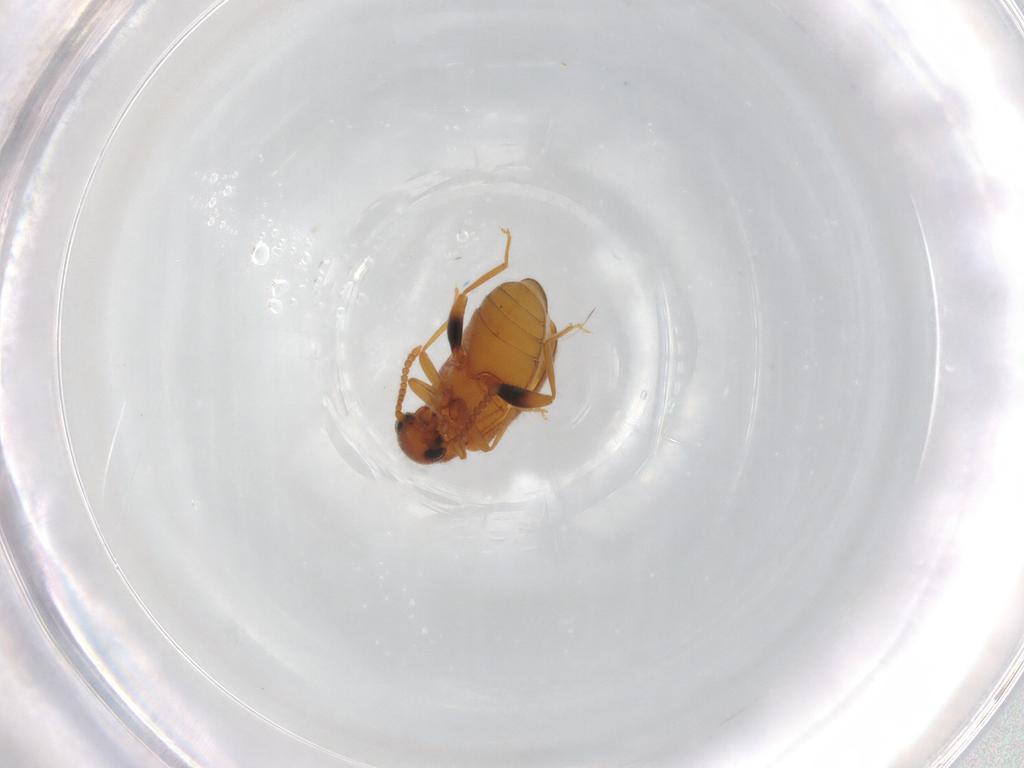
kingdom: Animalia
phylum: Arthropoda
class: Insecta
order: Coleoptera
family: Aderidae
